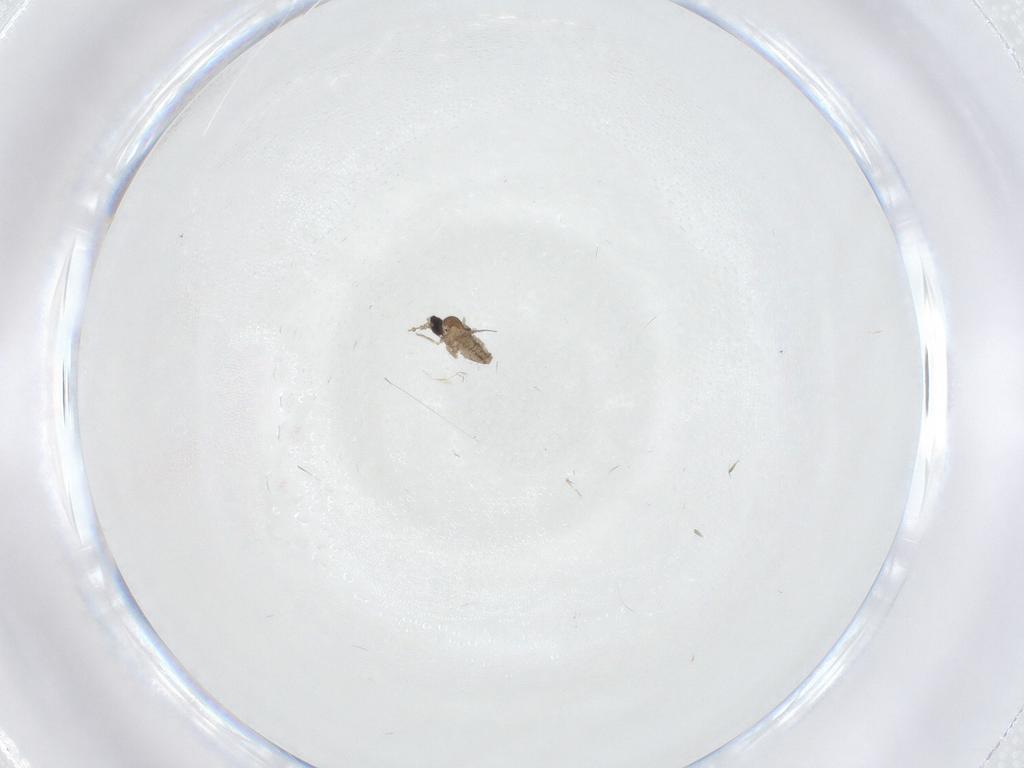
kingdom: Animalia
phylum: Arthropoda
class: Insecta
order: Diptera
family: Cecidomyiidae
